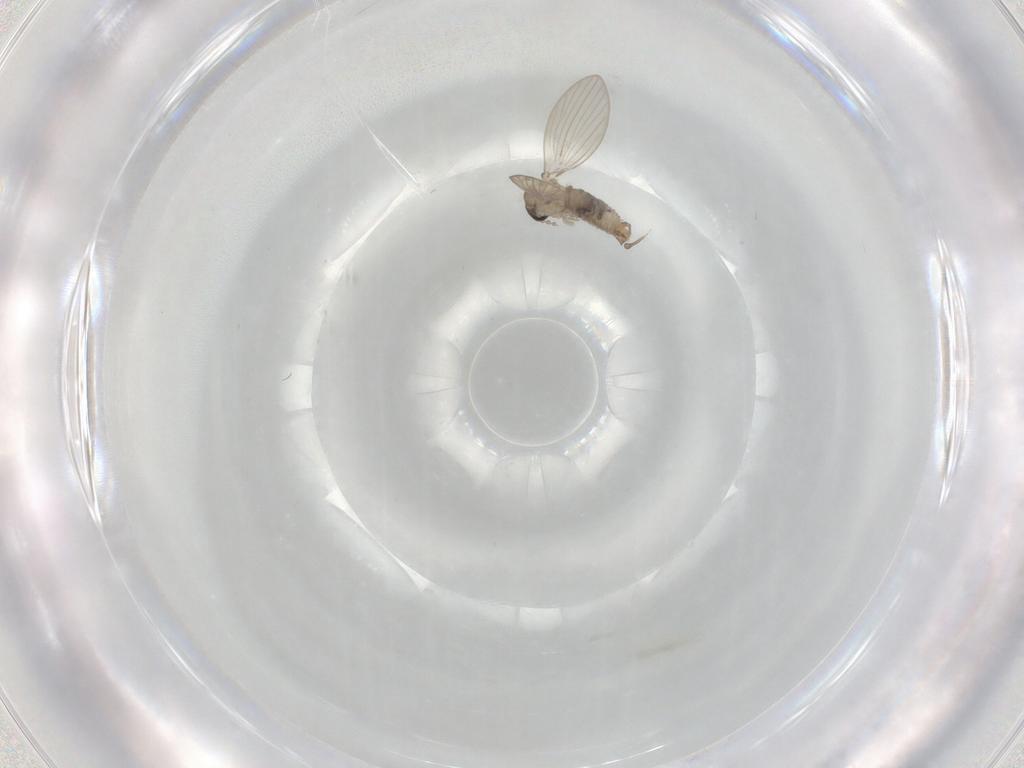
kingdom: Animalia
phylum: Arthropoda
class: Insecta
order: Diptera
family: Psychodidae
